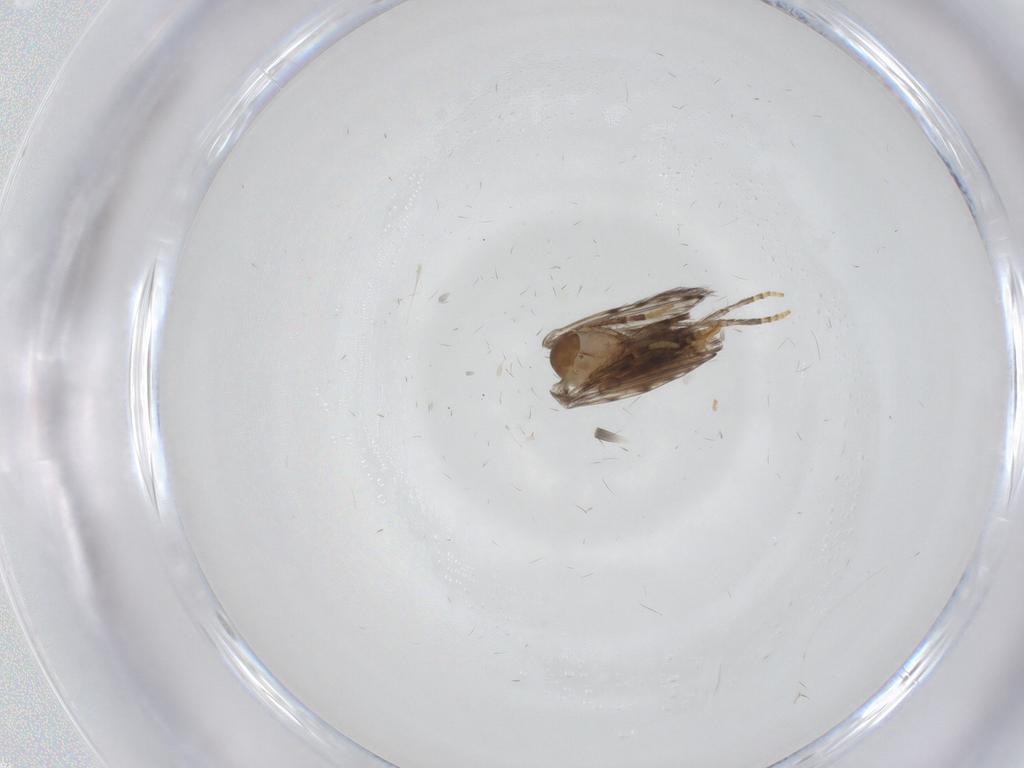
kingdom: Animalia
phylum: Arthropoda
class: Insecta
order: Diptera
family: Psychodidae
